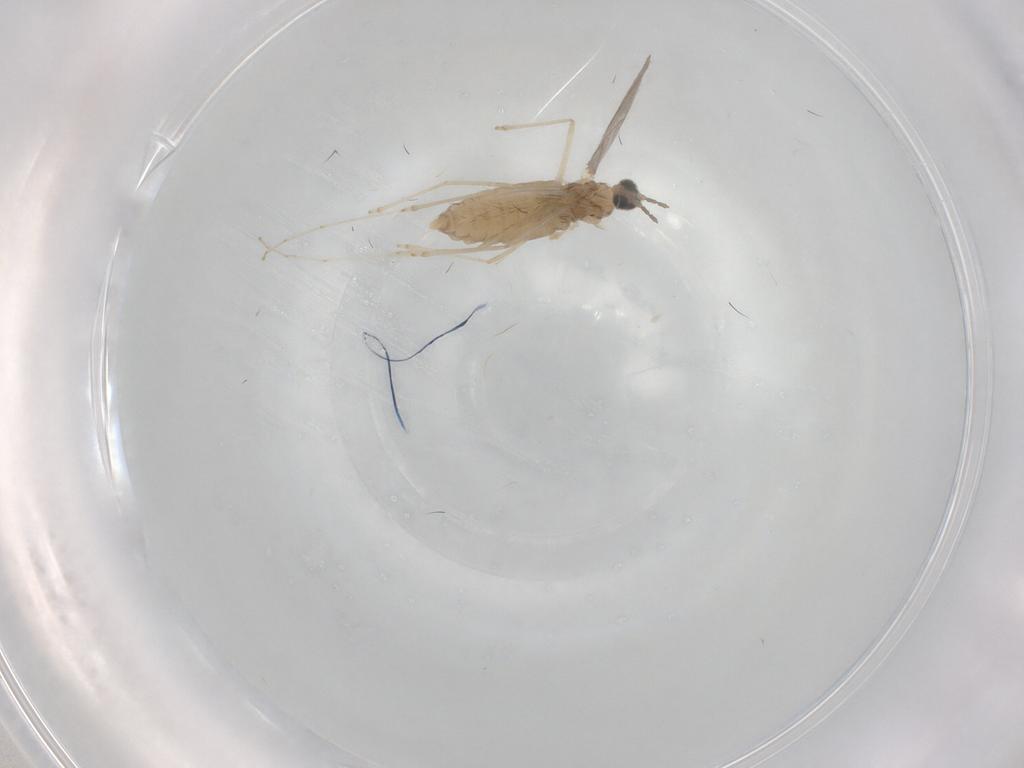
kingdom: Animalia
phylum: Arthropoda
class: Insecta
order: Diptera
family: Cecidomyiidae
